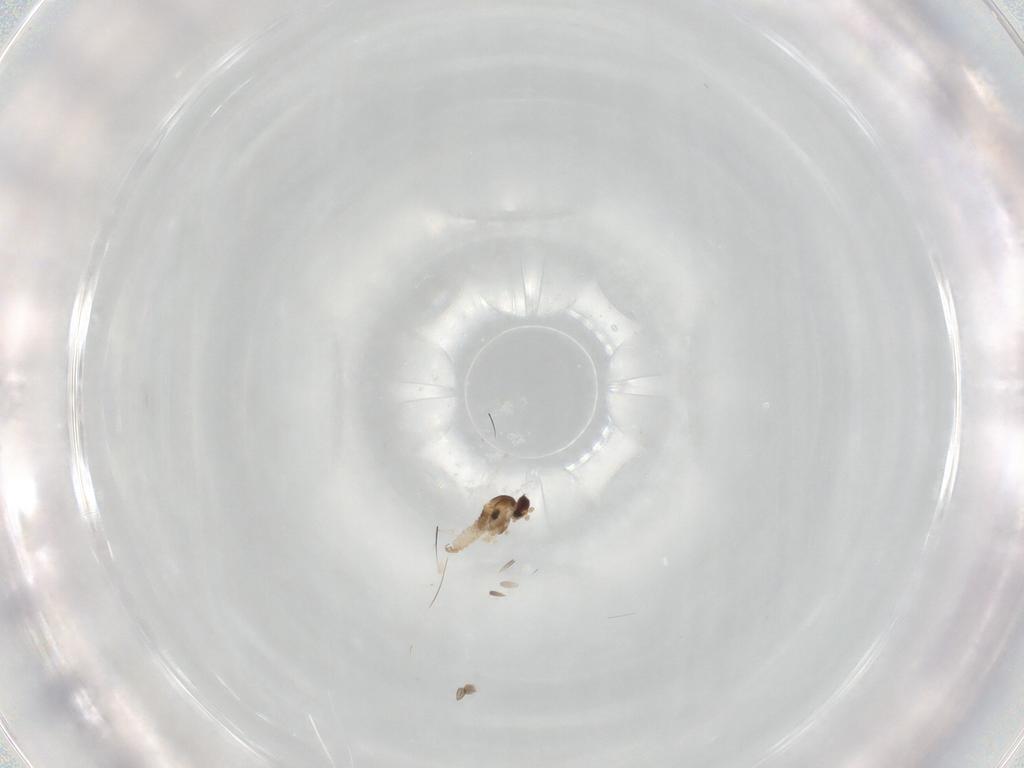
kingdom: Animalia
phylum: Arthropoda
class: Insecta
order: Diptera
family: Cecidomyiidae
